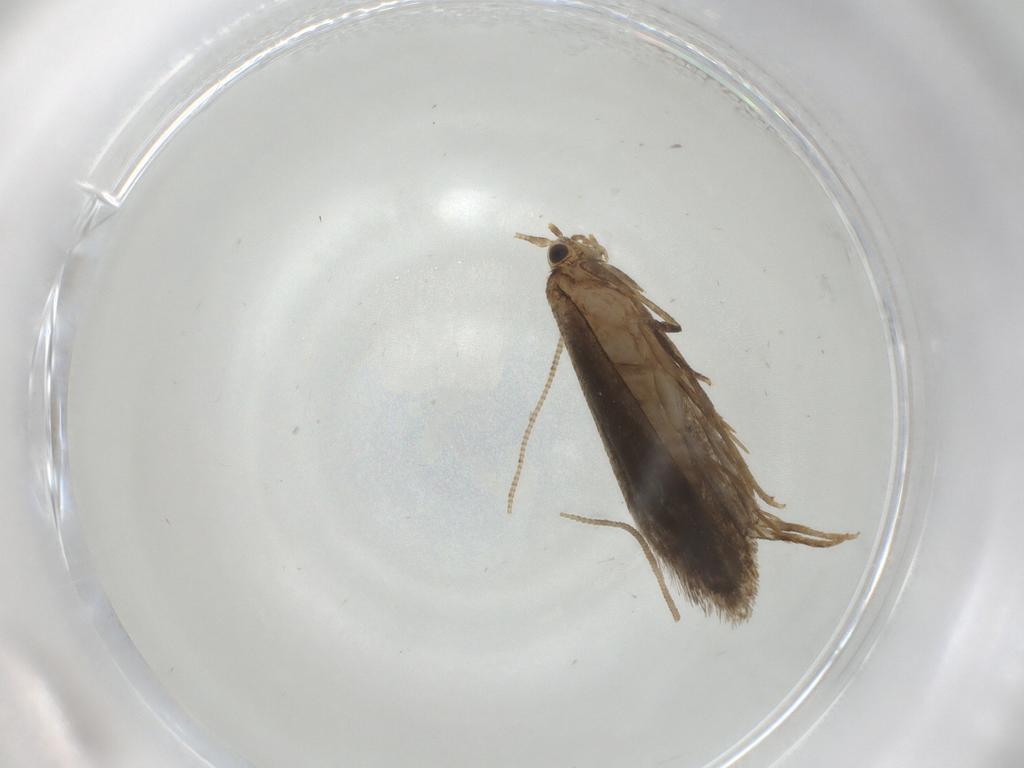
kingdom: Animalia
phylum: Arthropoda
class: Insecta
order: Lepidoptera
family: Tineidae
